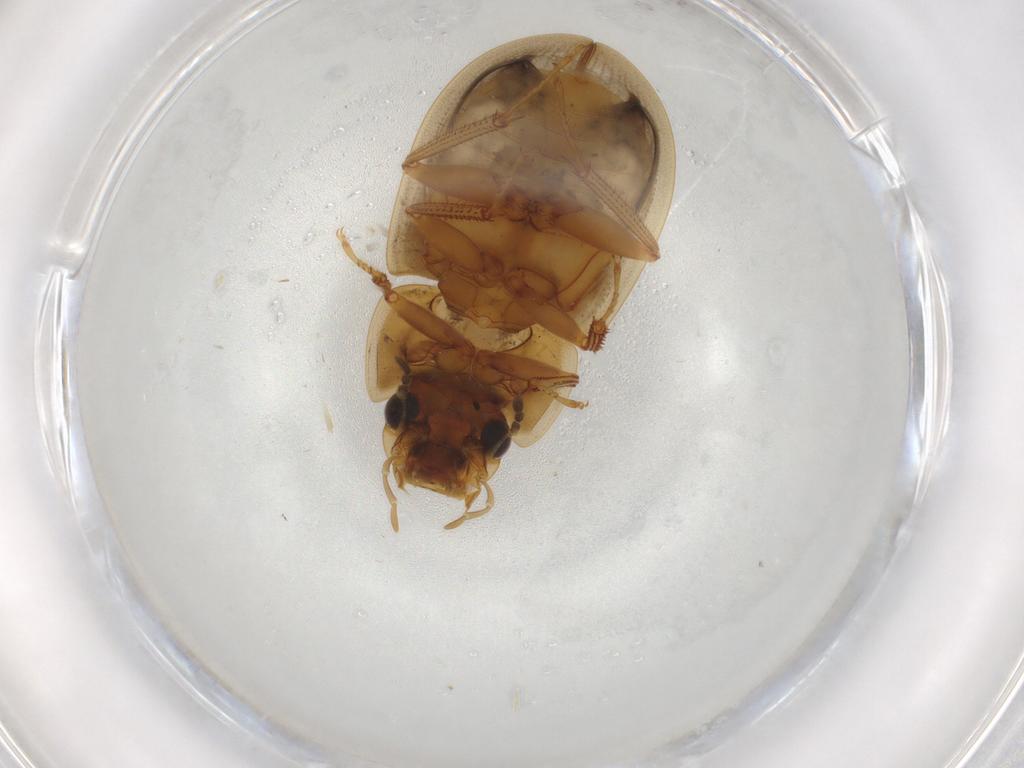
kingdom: Animalia
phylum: Arthropoda
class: Insecta
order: Coleoptera
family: Hydrophilidae
